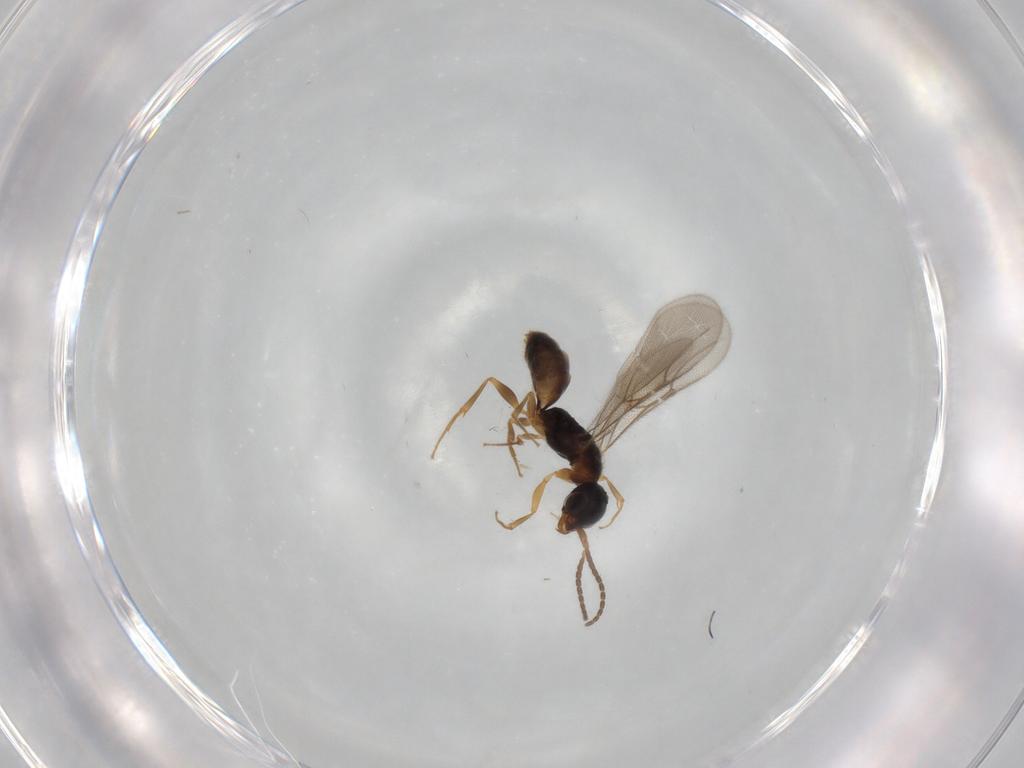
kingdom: Animalia
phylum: Arthropoda
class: Insecta
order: Hymenoptera
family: Bethylidae
